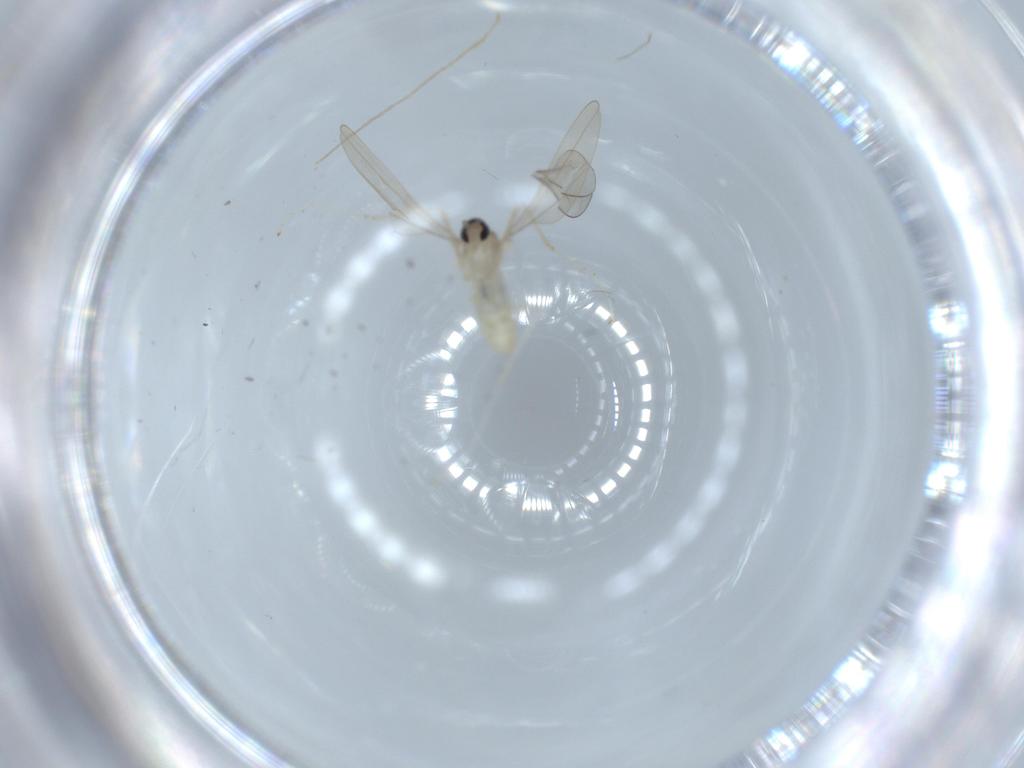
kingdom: Animalia
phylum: Arthropoda
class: Insecta
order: Diptera
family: Cecidomyiidae
